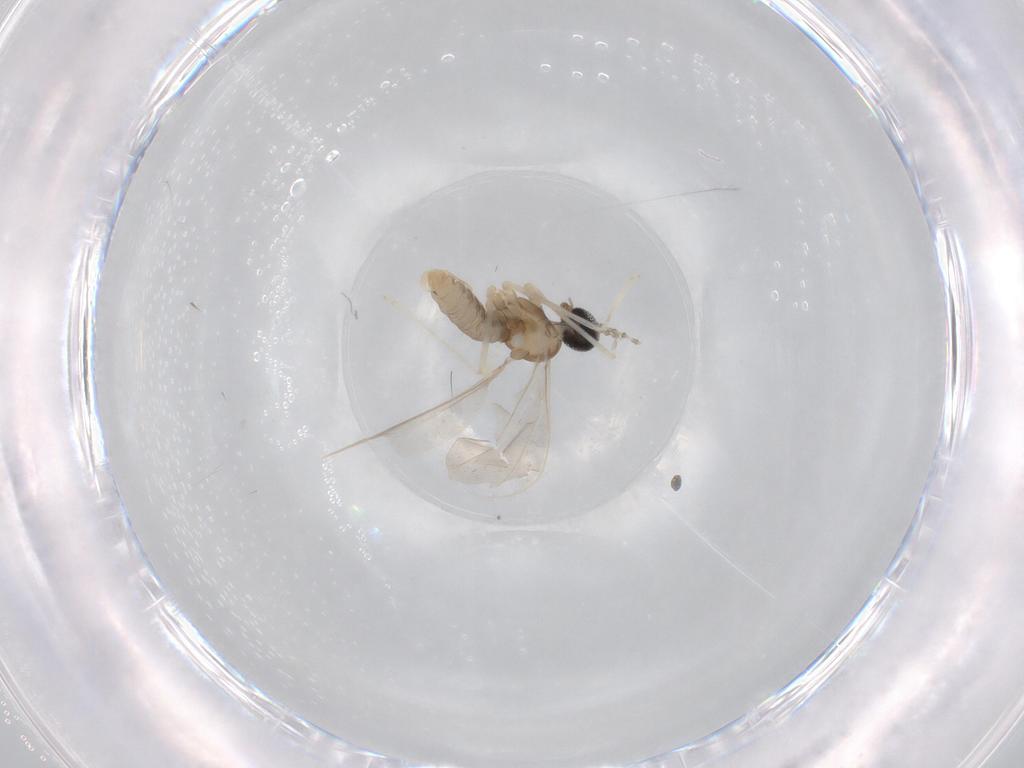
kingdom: Animalia
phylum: Arthropoda
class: Insecta
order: Diptera
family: Cecidomyiidae
